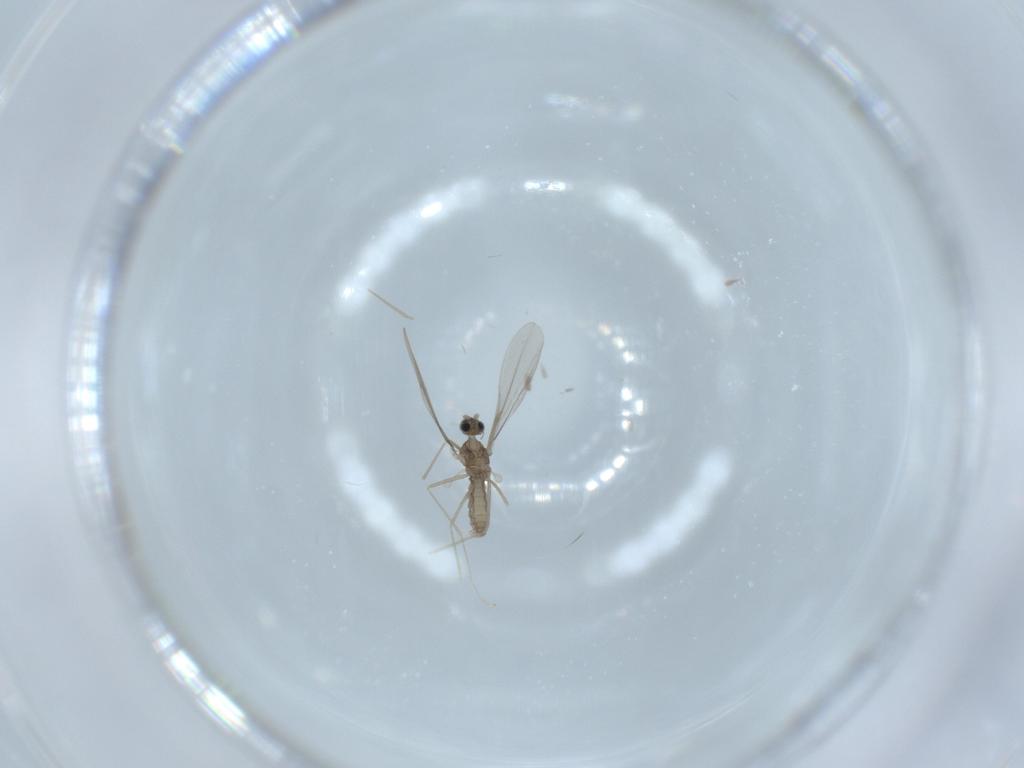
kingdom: Animalia
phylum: Arthropoda
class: Insecta
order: Diptera
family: Cecidomyiidae
